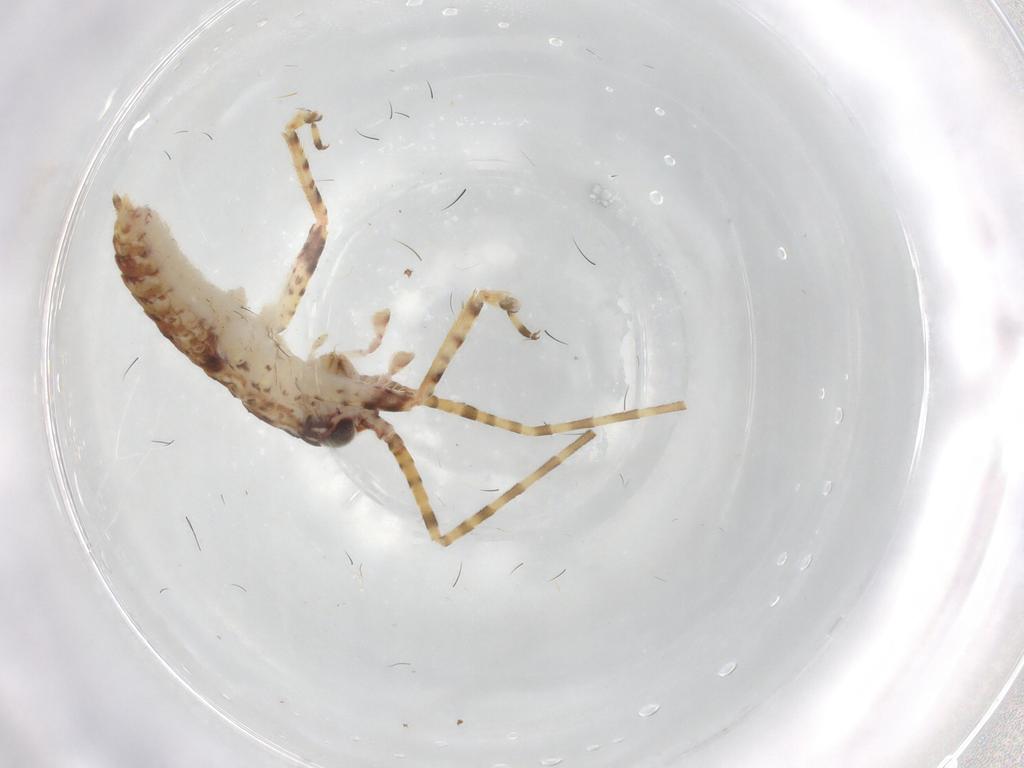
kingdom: Animalia
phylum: Arthropoda
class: Insecta
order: Orthoptera
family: Gryllidae
